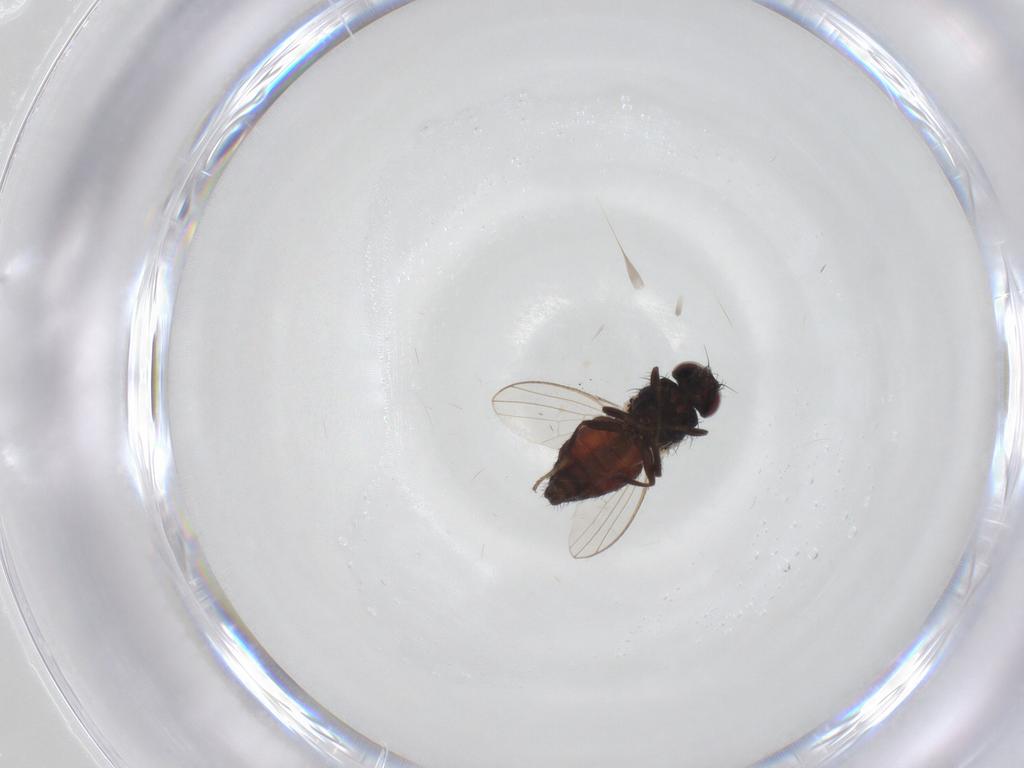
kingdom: Animalia
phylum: Arthropoda
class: Insecta
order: Diptera
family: Carnidae
